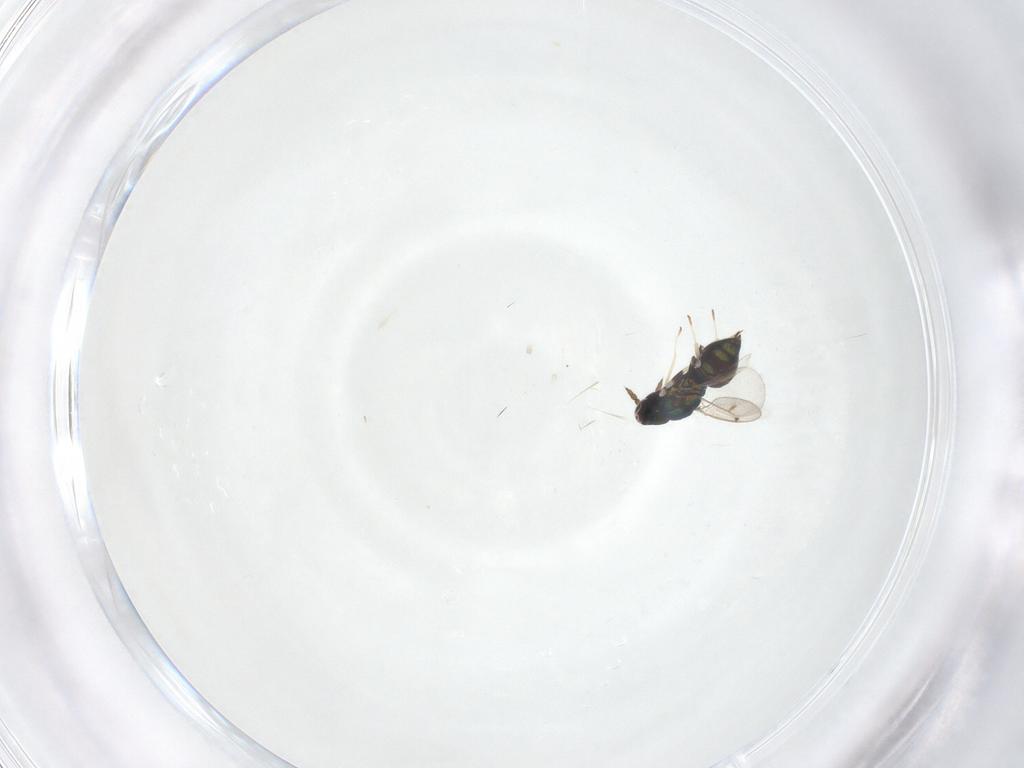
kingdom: Animalia
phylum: Arthropoda
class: Insecta
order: Hymenoptera
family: Eulophidae
